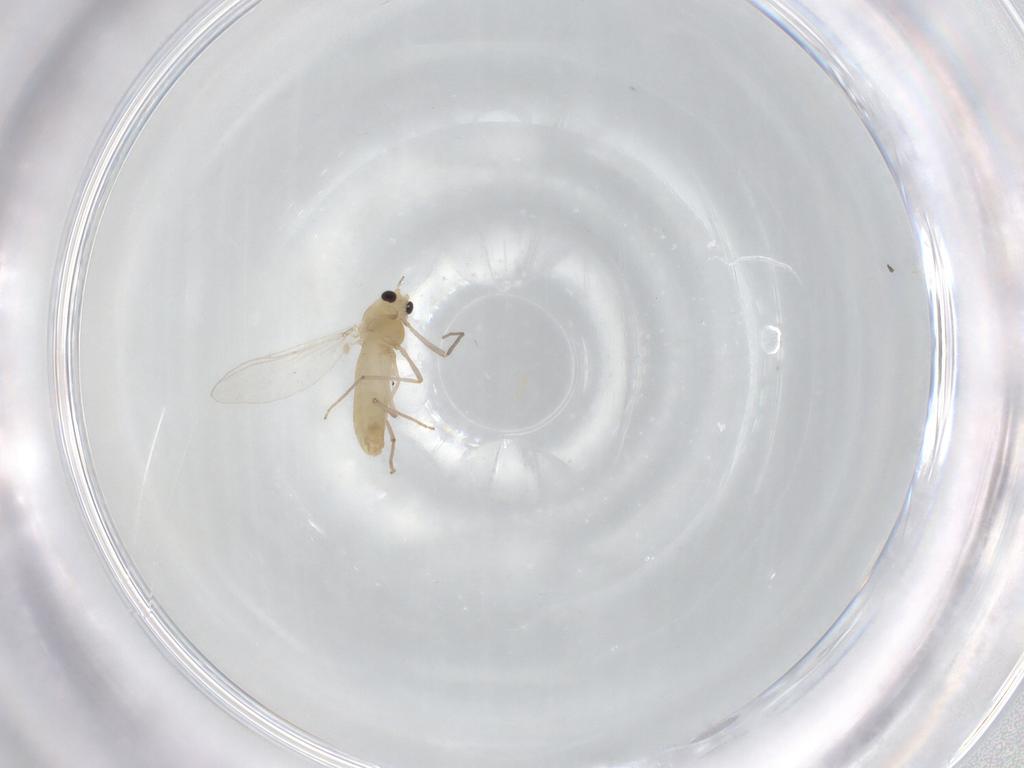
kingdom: Animalia
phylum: Arthropoda
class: Insecta
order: Diptera
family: Chironomidae
